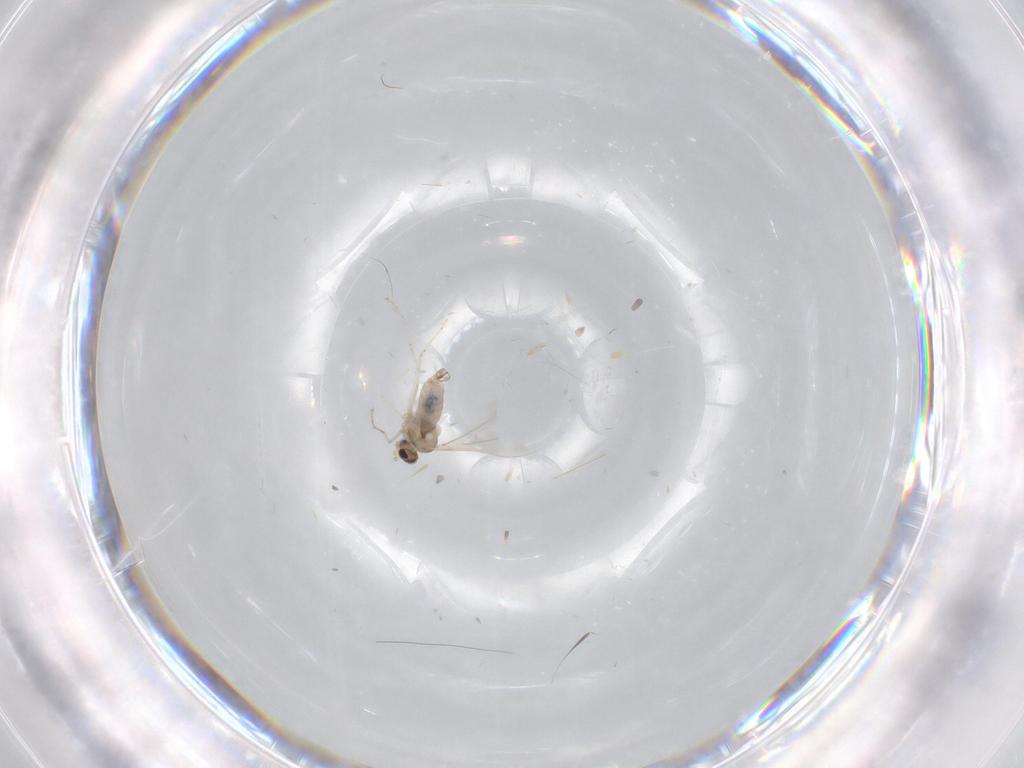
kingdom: Animalia
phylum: Arthropoda
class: Insecta
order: Diptera
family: Cecidomyiidae
